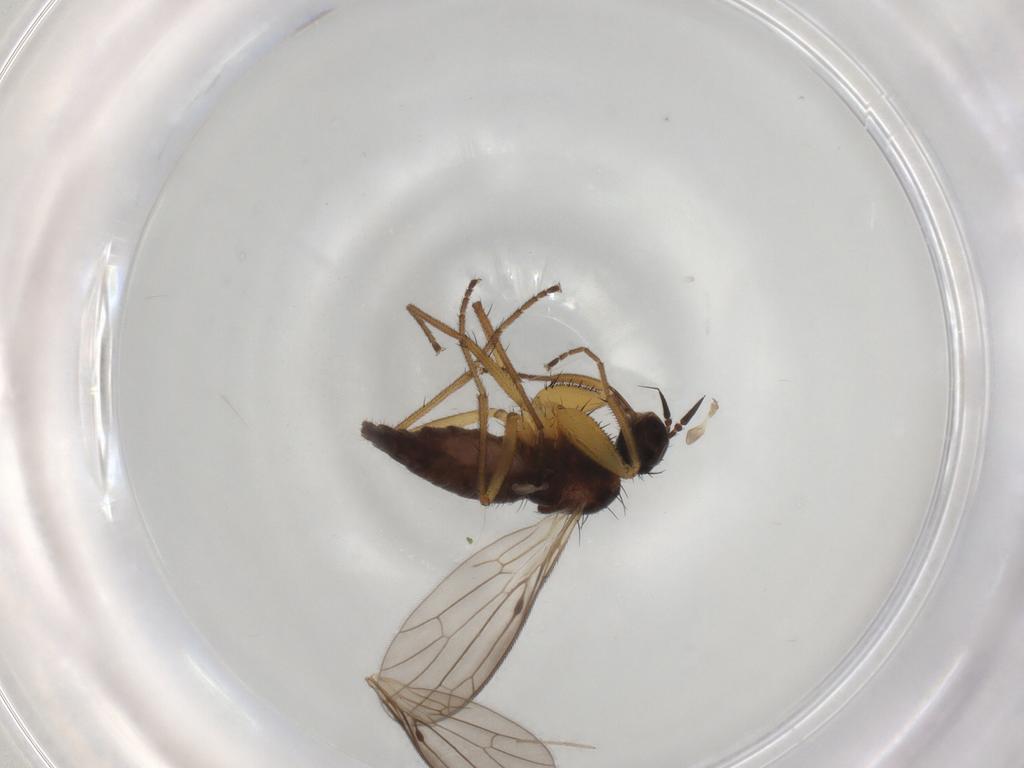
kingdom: Animalia
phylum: Arthropoda
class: Insecta
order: Diptera
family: Cecidomyiidae
